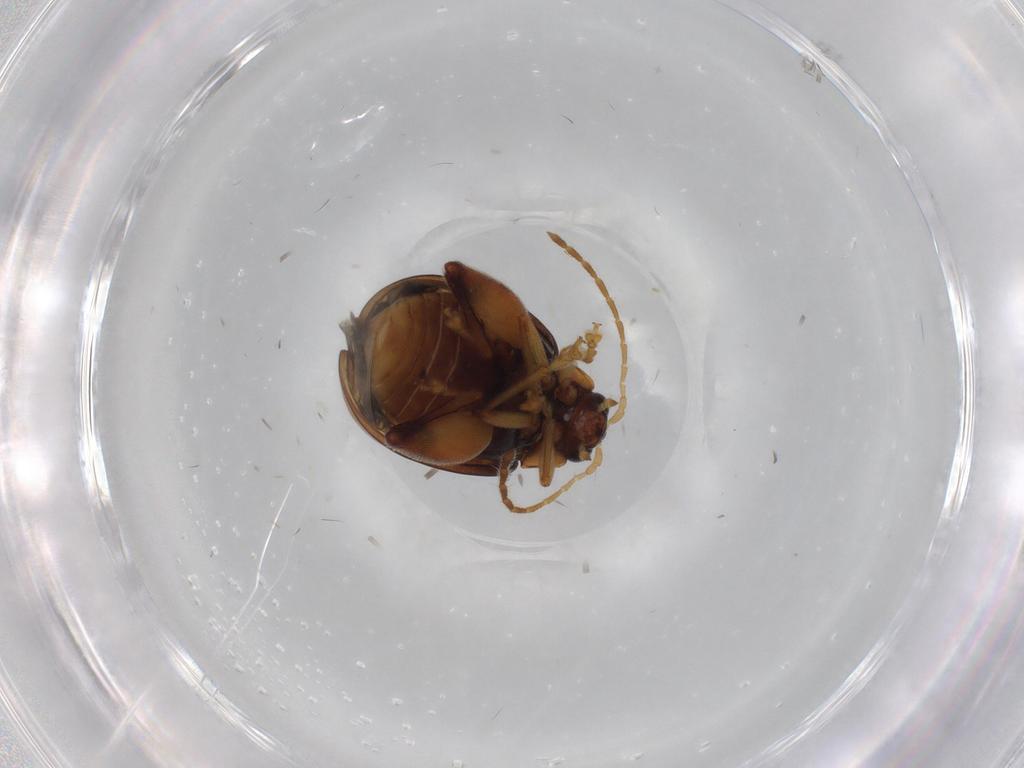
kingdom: Animalia
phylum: Arthropoda
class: Insecta
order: Coleoptera
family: Chrysomelidae
